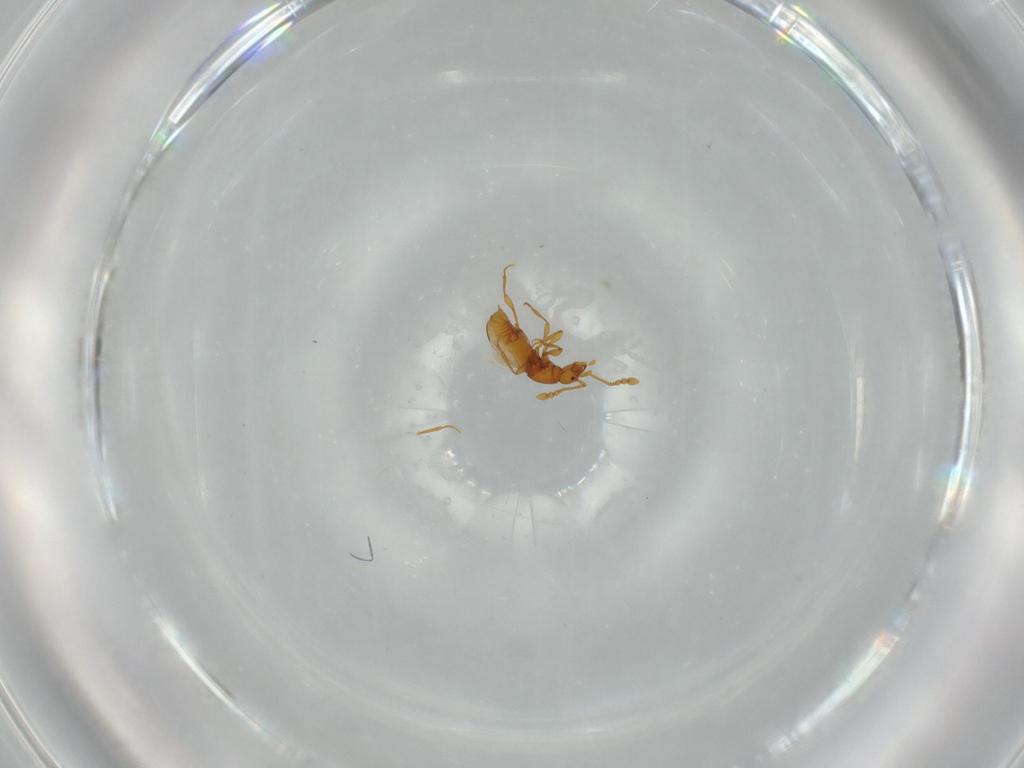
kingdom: Animalia
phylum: Arthropoda
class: Insecta
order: Coleoptera
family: Staphylinidae
